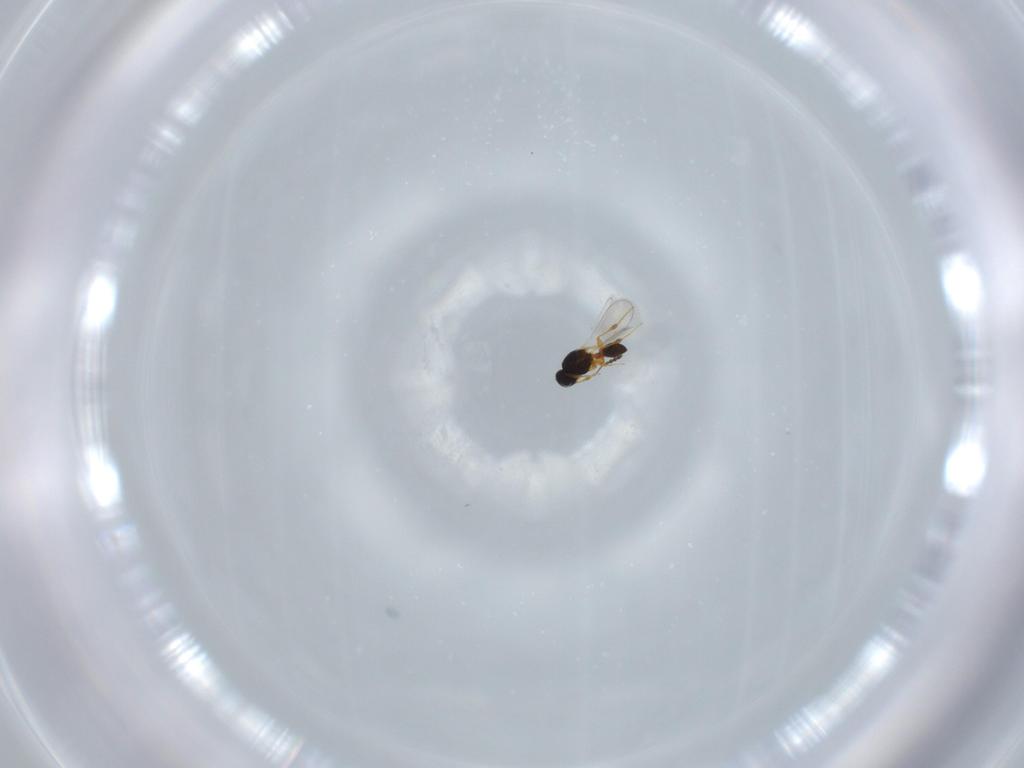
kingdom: Animalia
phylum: Arthropoda
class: Insecta
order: Hymenoptera
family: Platygastridae
